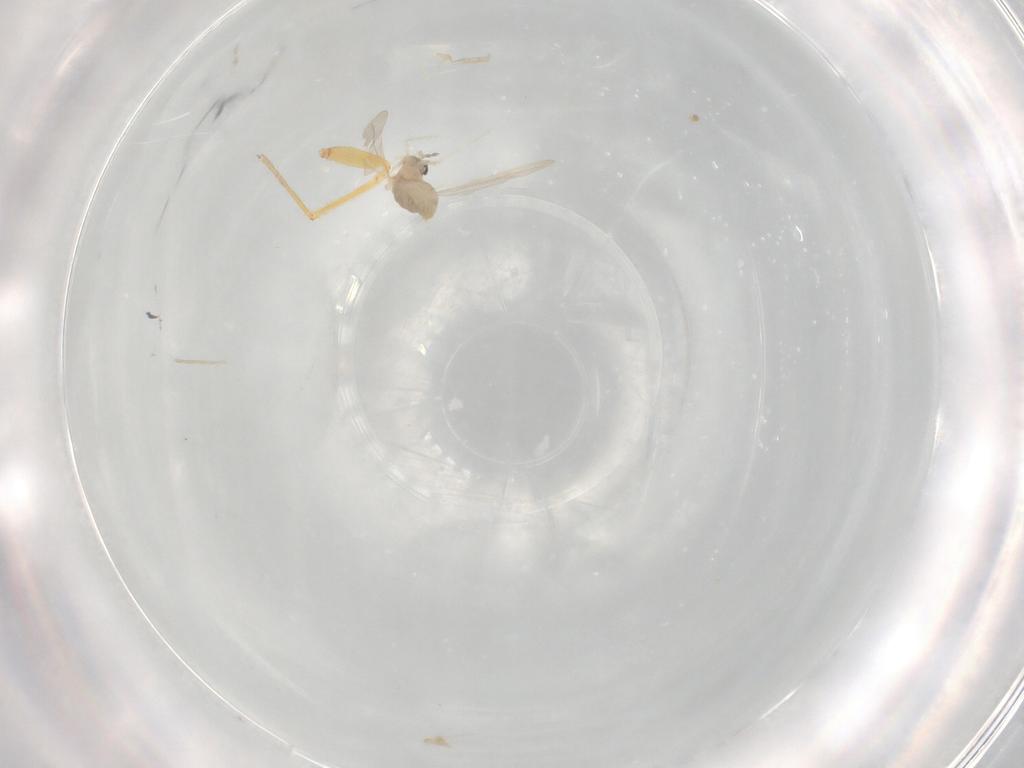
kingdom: Animalia
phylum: Arthropoda
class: Insecta
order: Diptera
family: Cecidomyiidae
